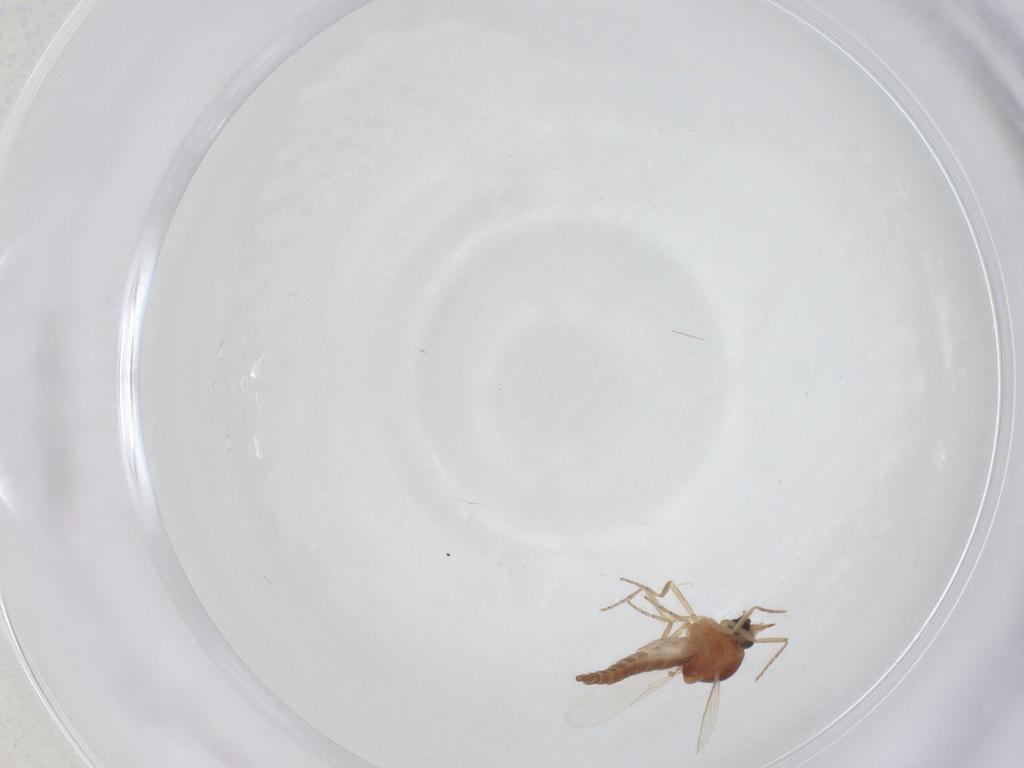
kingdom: Animalia
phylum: Arthropoda
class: Insecta
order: Diptera
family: Ceratopogonidae
